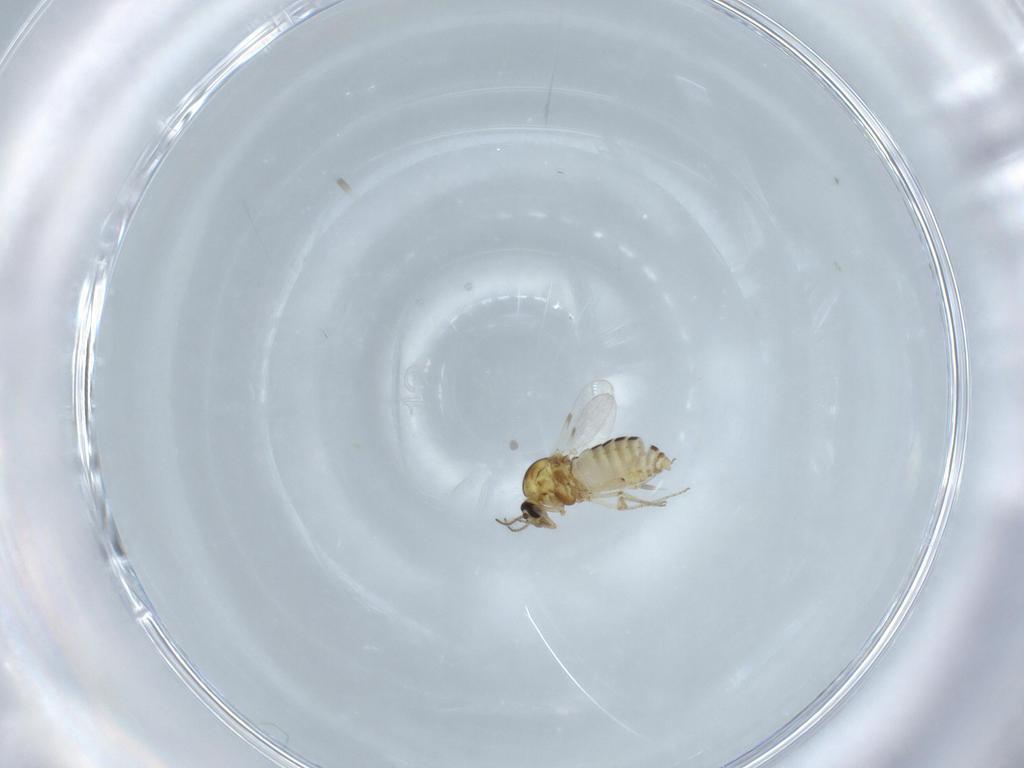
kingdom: Animalia
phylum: Arthropoda
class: Insecta
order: Diptera
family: Ceratopogonidae
